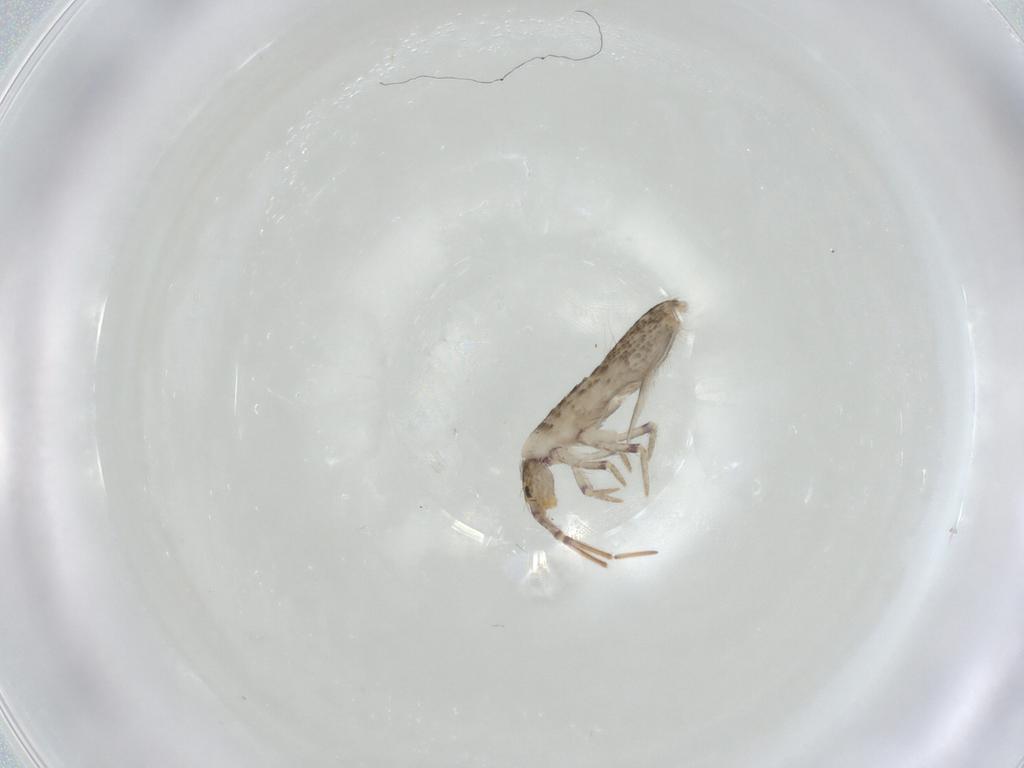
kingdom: Animalia
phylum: Arthropoda
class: Collembola
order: Entomobryomorpha
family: Entomobryidae
